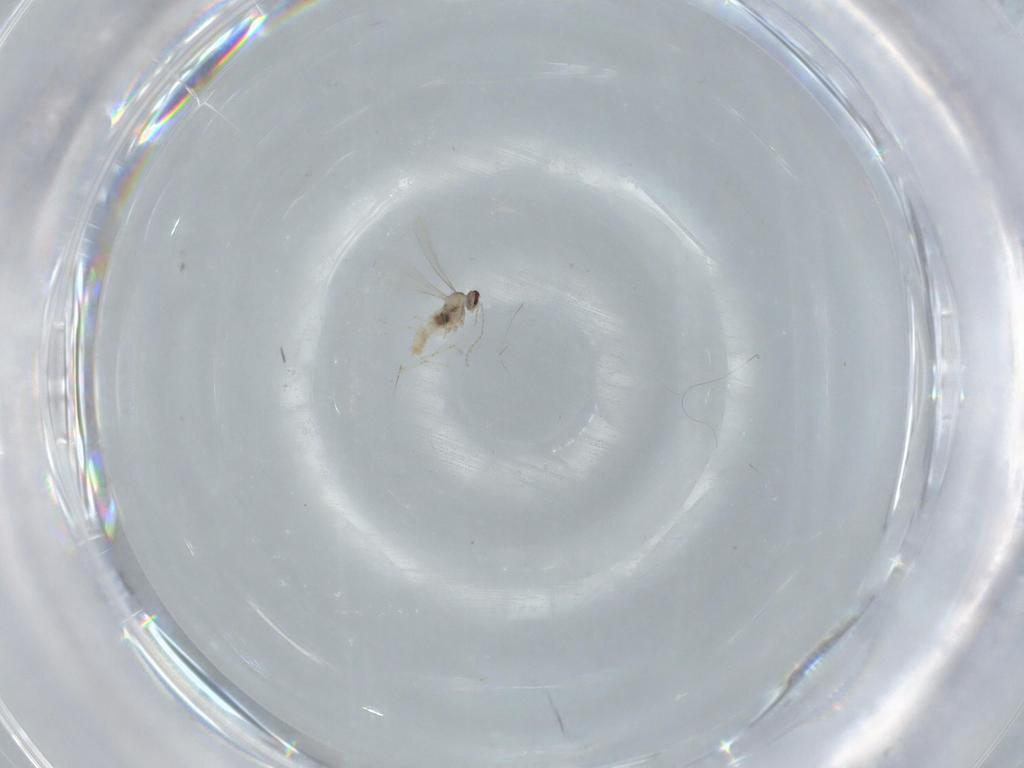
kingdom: Animalia
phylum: Arthropoda
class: Insecta
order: Diptera
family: Cecidomyiidae
